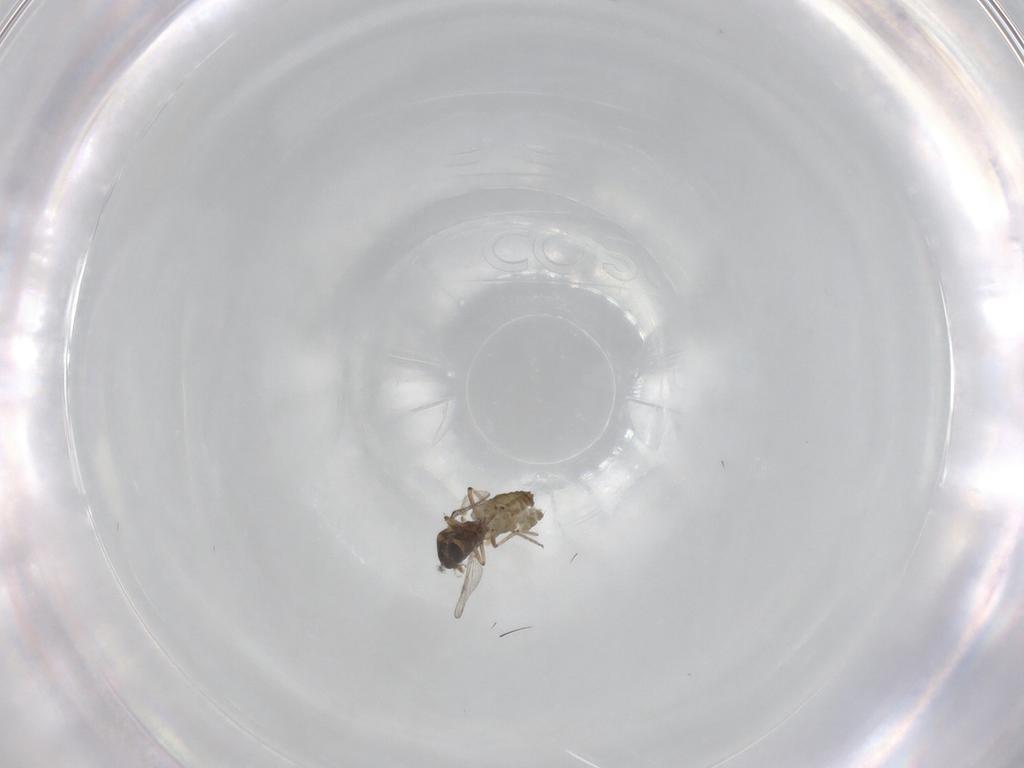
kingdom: Animalia
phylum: Arthropoda
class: Insecta
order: Diptera
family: Ceratopogonidae
